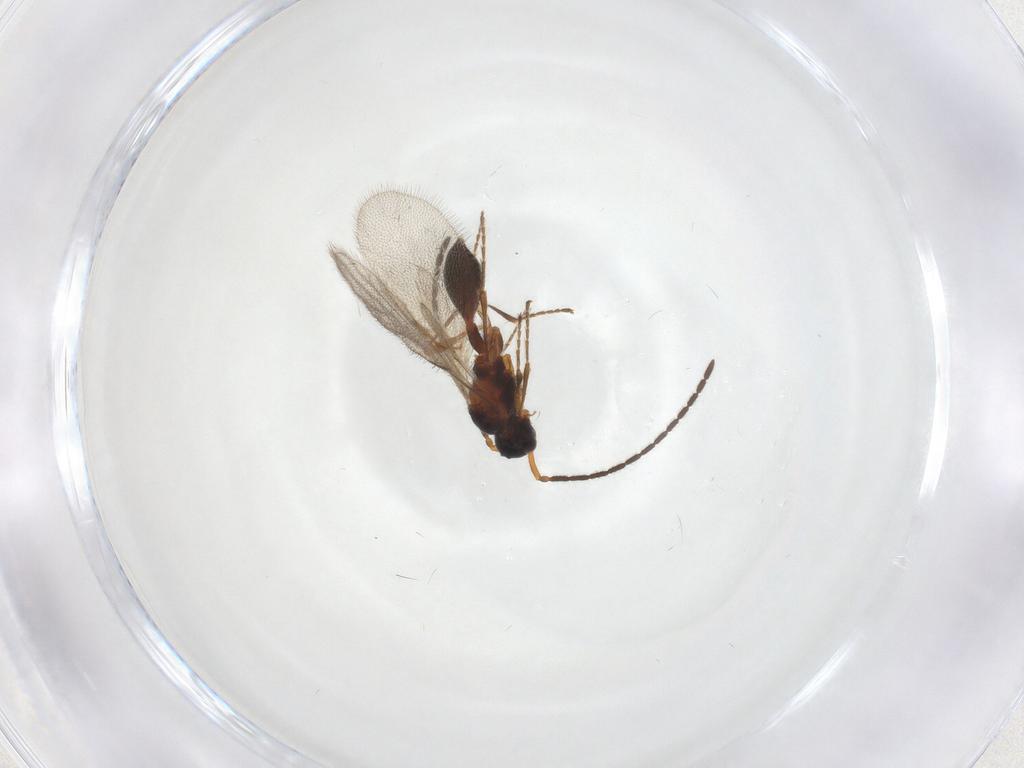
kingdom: Animalia
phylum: Arthropoda
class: Insecta
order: Hymenoptera
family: Diapriidae
